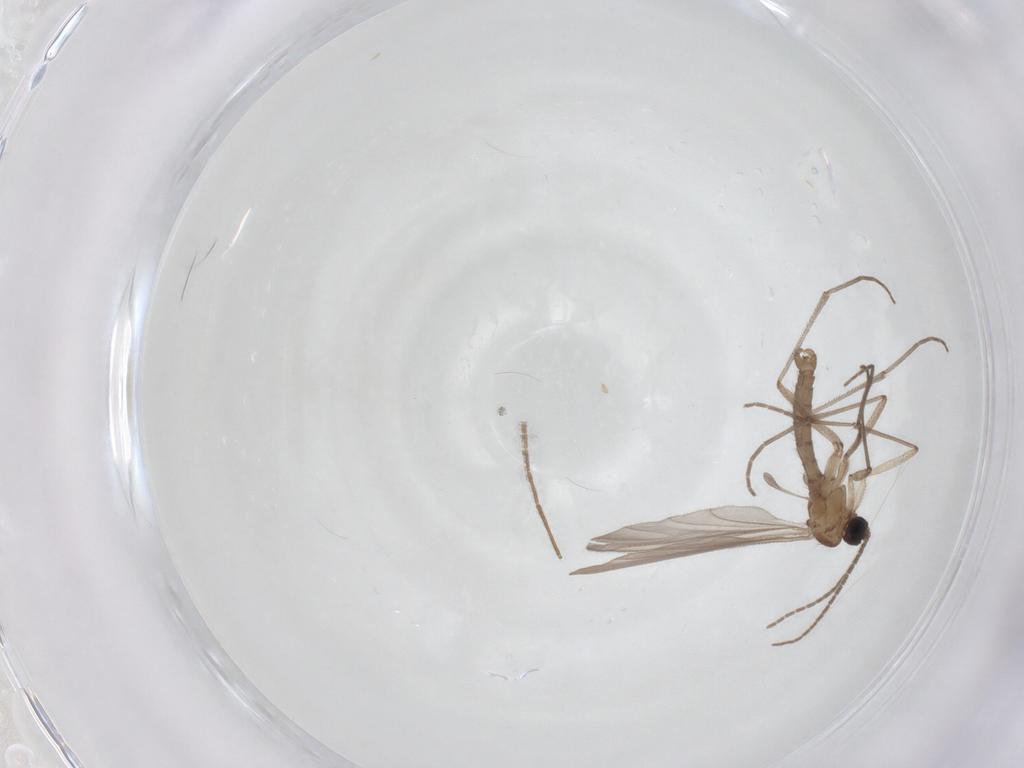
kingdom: Animalia
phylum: Arthropoda
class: Insecta
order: Diptera
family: Sciaridae
